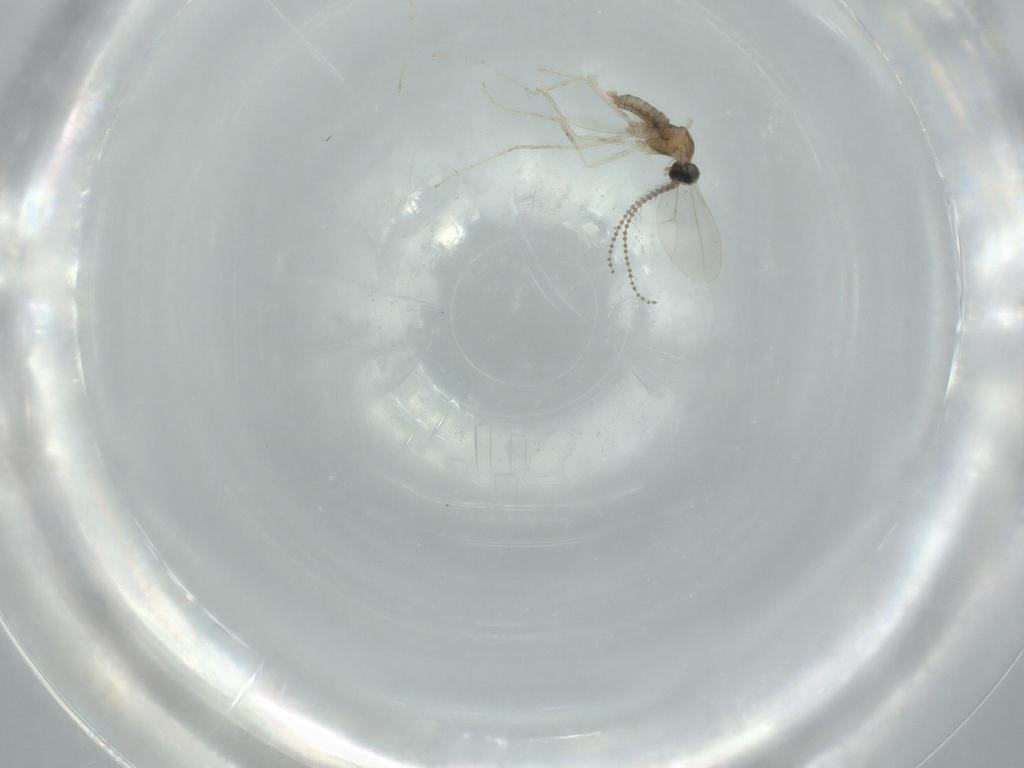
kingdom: Animalia
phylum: Arthropoda
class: Insecta
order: Diptera
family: Cecidomyiidae
